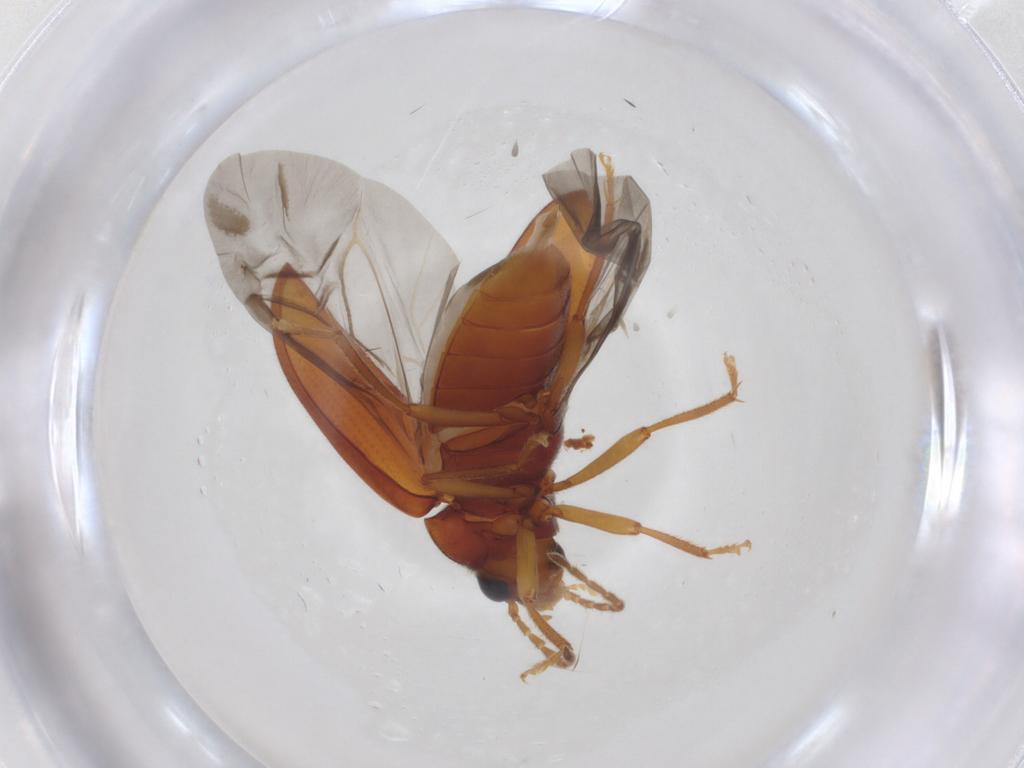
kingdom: Animalia
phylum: Arthropoda
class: Insecta
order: Coleoptera
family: Ptilodactylidae
